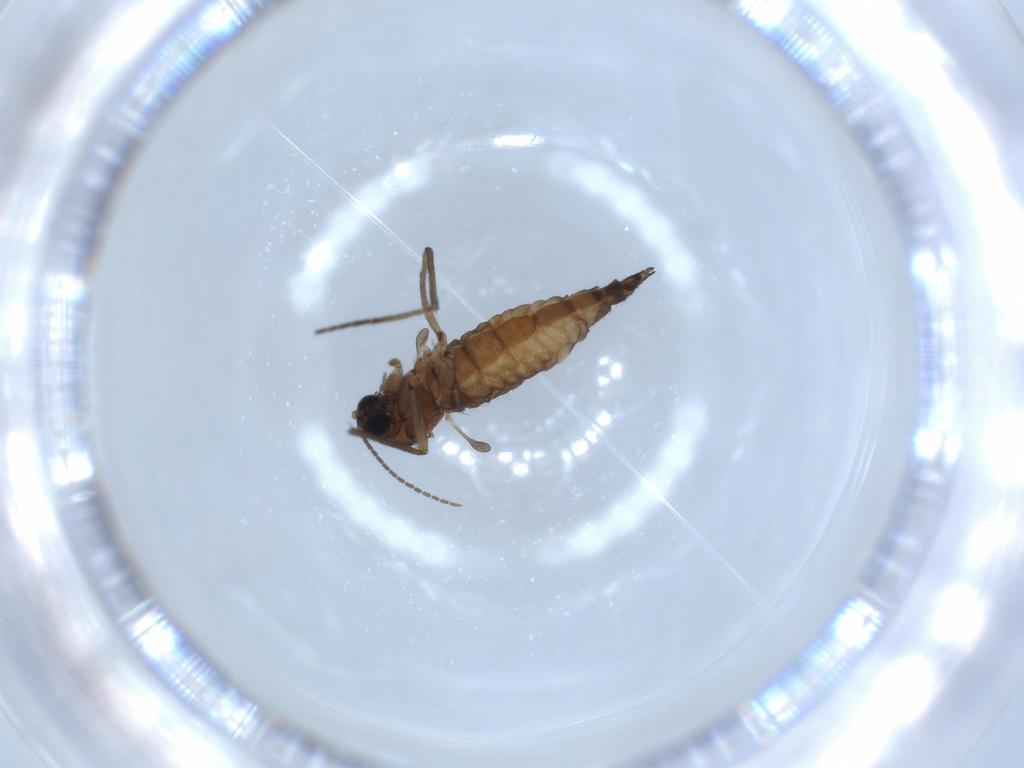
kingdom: Animalia
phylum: Arthropoda
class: Insecta
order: Diptera
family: Sciaridae
